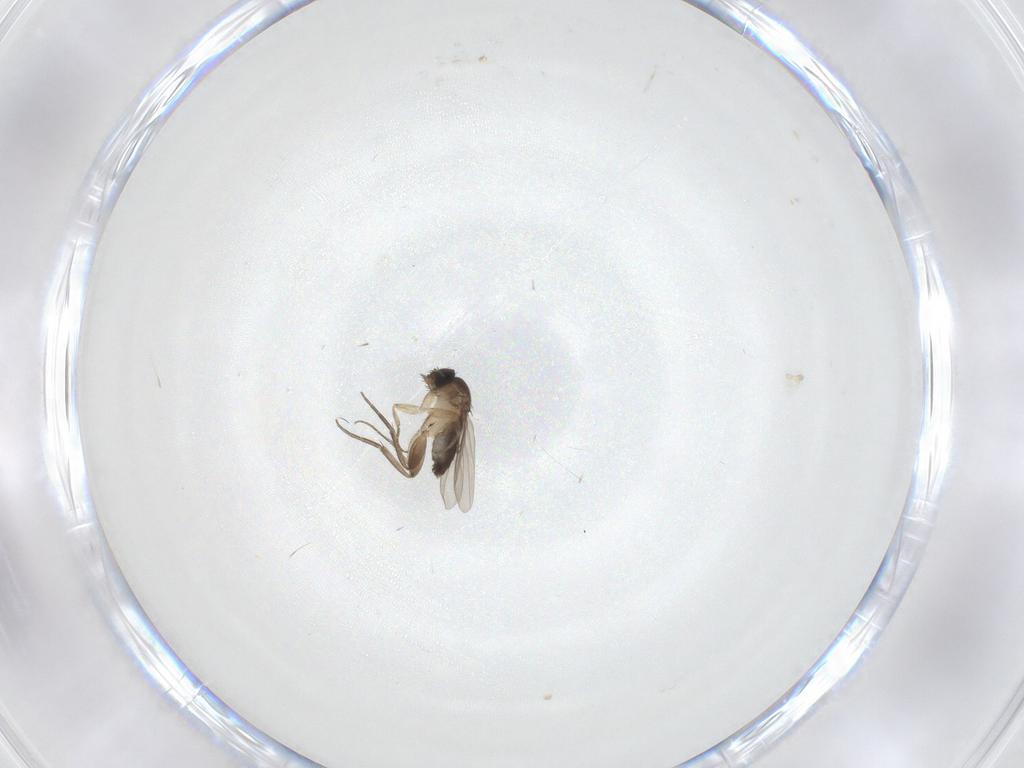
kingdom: Animalia
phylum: Arthropoda
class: Insecta
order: Diptera
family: Phoridae
